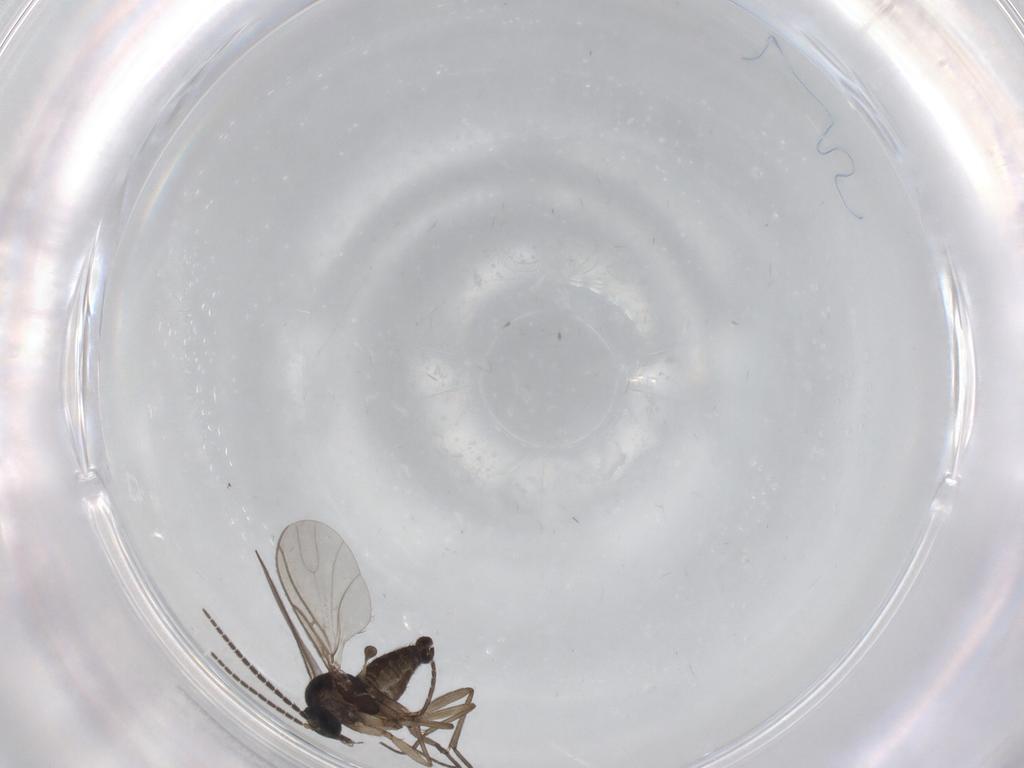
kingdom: Animalia
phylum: Arthropoda
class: Insecta
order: Diptera
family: Sciaridae
